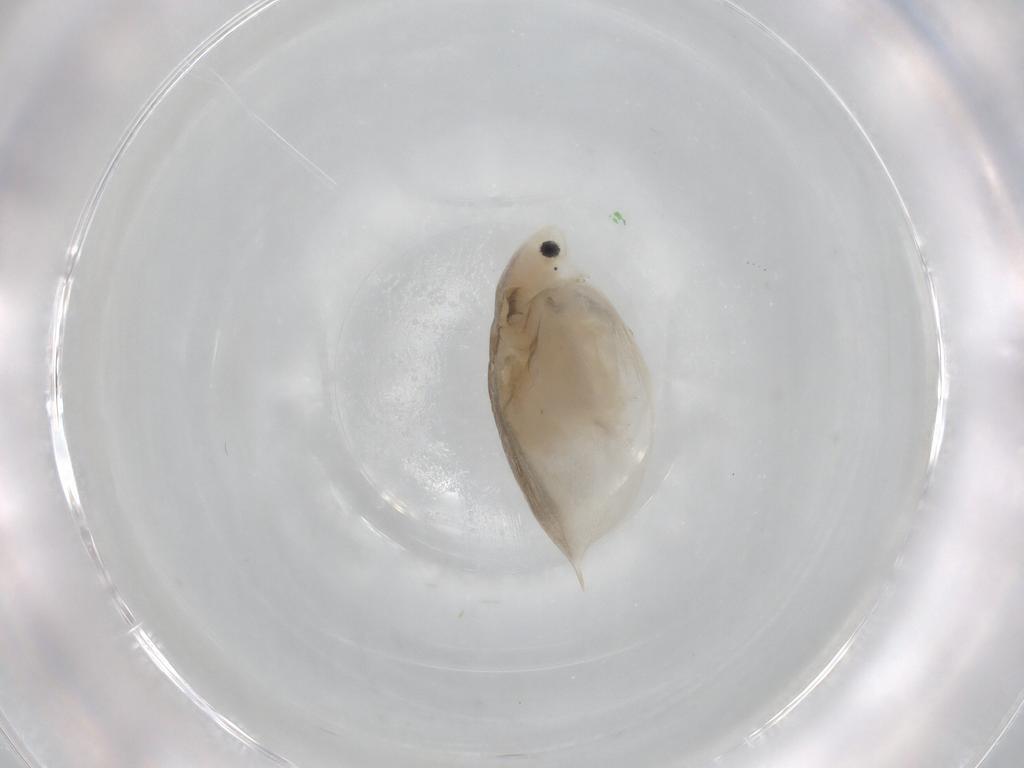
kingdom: Animalia
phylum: Arthropoda
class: Branchiopoda
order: Diplostraca
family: Daphniidae
